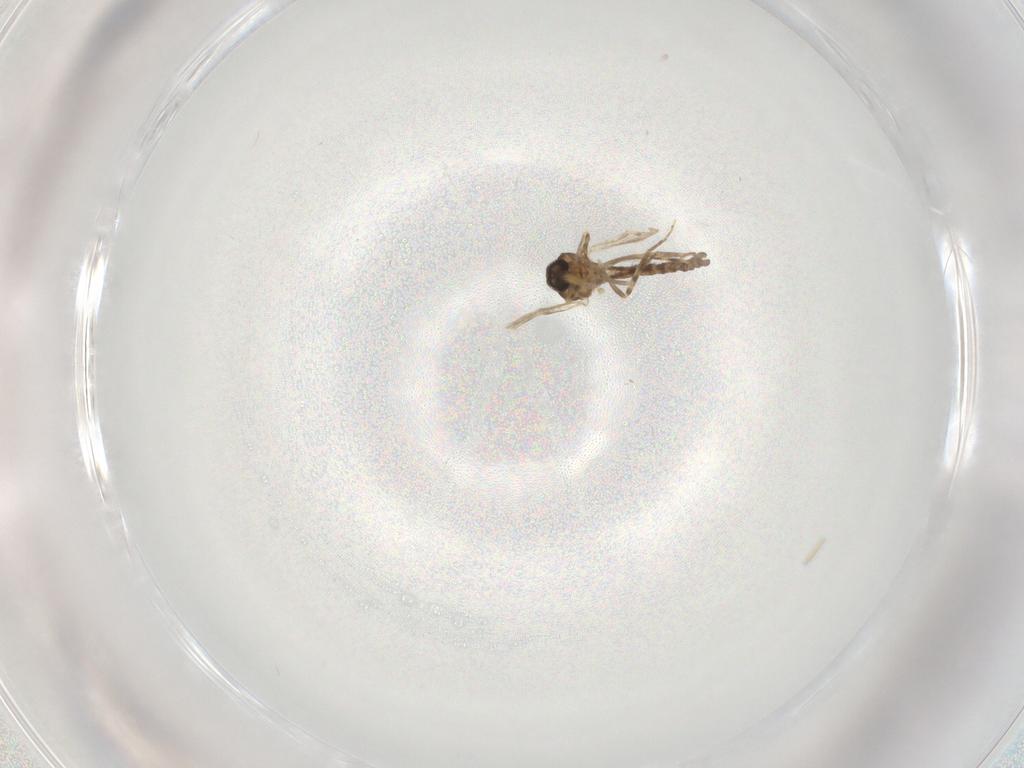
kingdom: Animalia
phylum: Arthropoda
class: Insecta
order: Diptera
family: Ceratopogonidae
